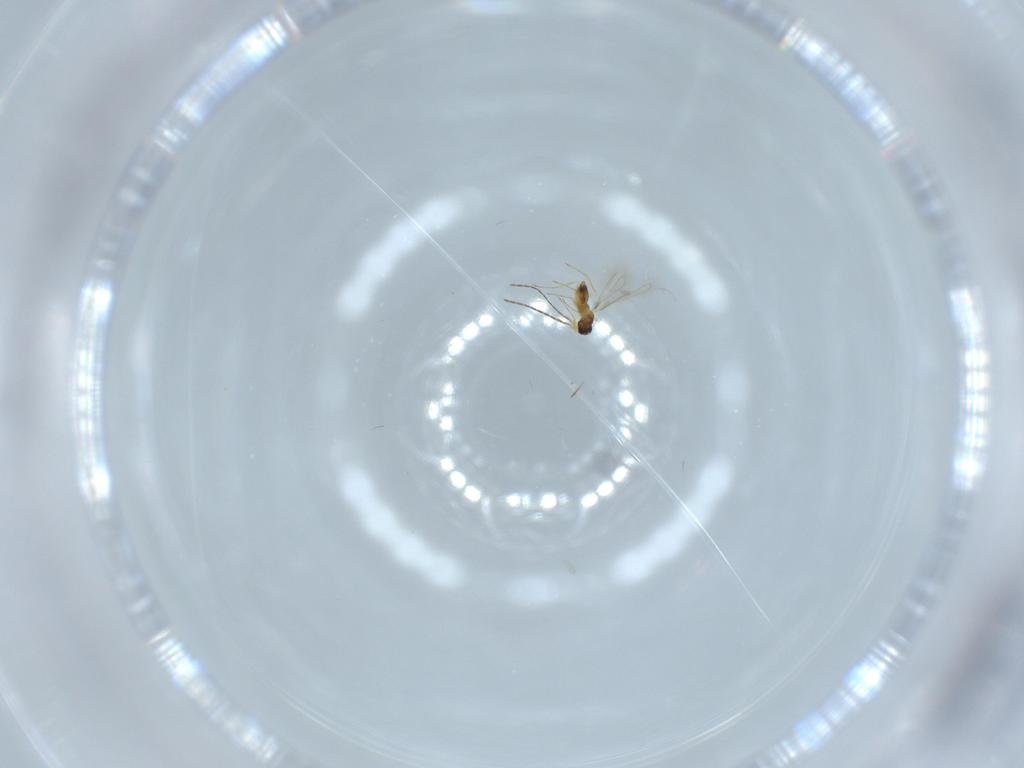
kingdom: Animalia
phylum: Arthropoda
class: Insecta
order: Hymenoptera
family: Mymaridae
